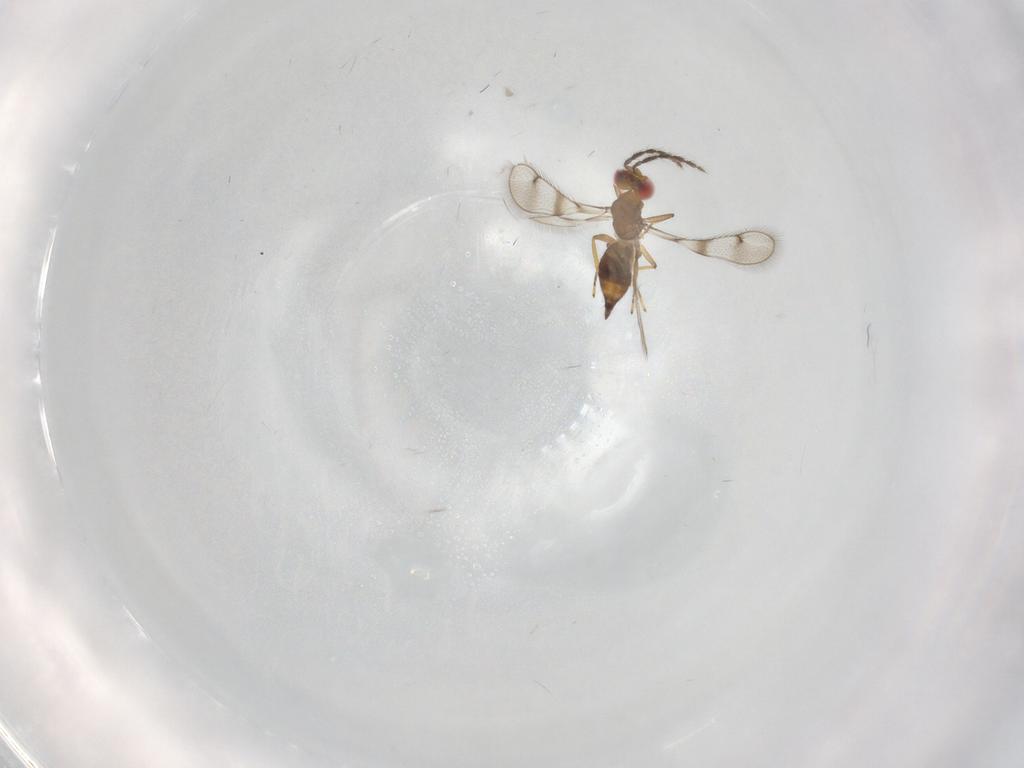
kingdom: Animalia
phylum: Arthropoda
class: Insecta
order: Hymenoptera
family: Eulophidae
